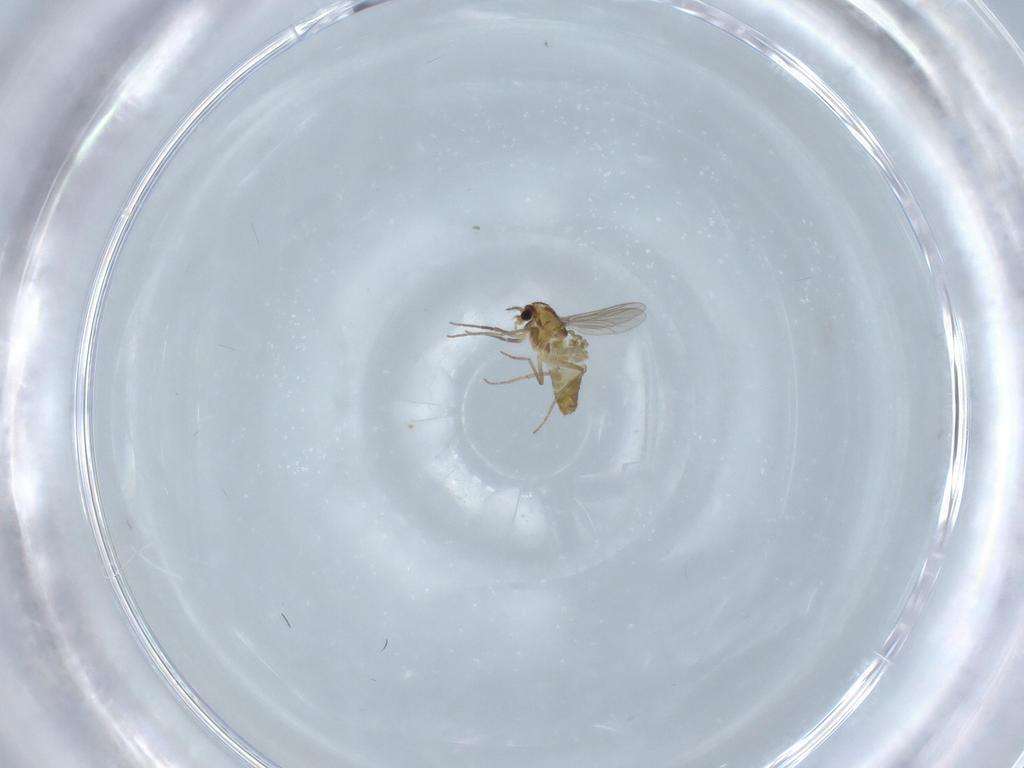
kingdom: Animalia
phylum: Arthropoda
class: Insecta
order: Diptera
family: Chironomidae
